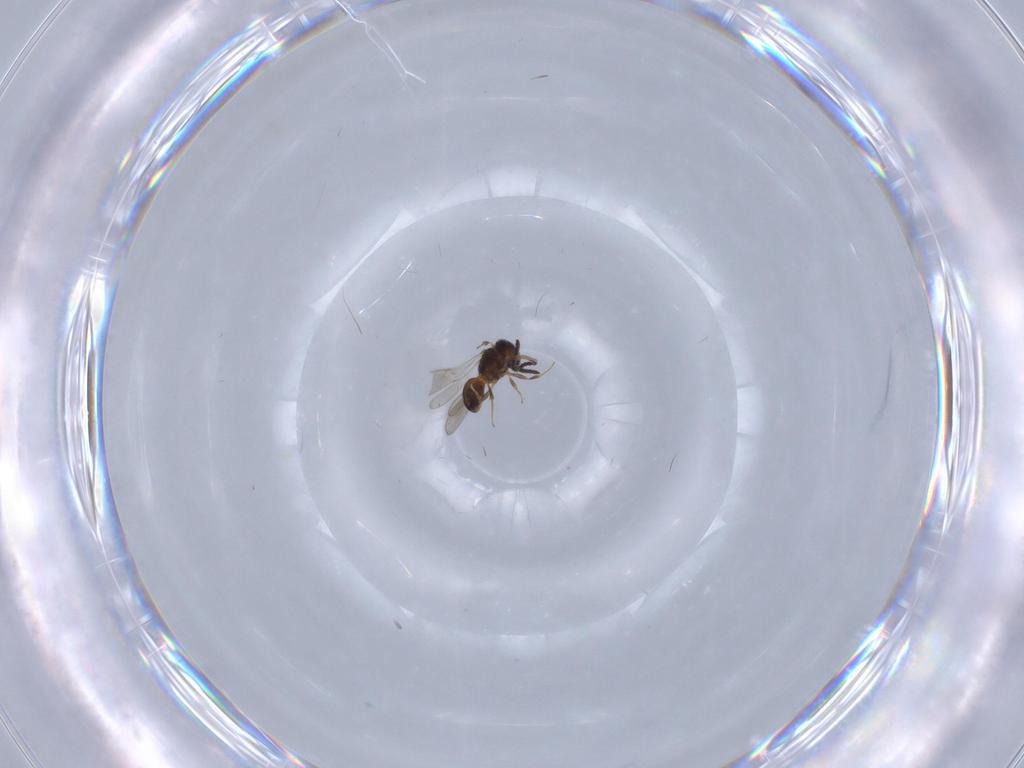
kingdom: Animalia
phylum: Arthropoda
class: Insecta
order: Hymenoptera
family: Scelionidae
